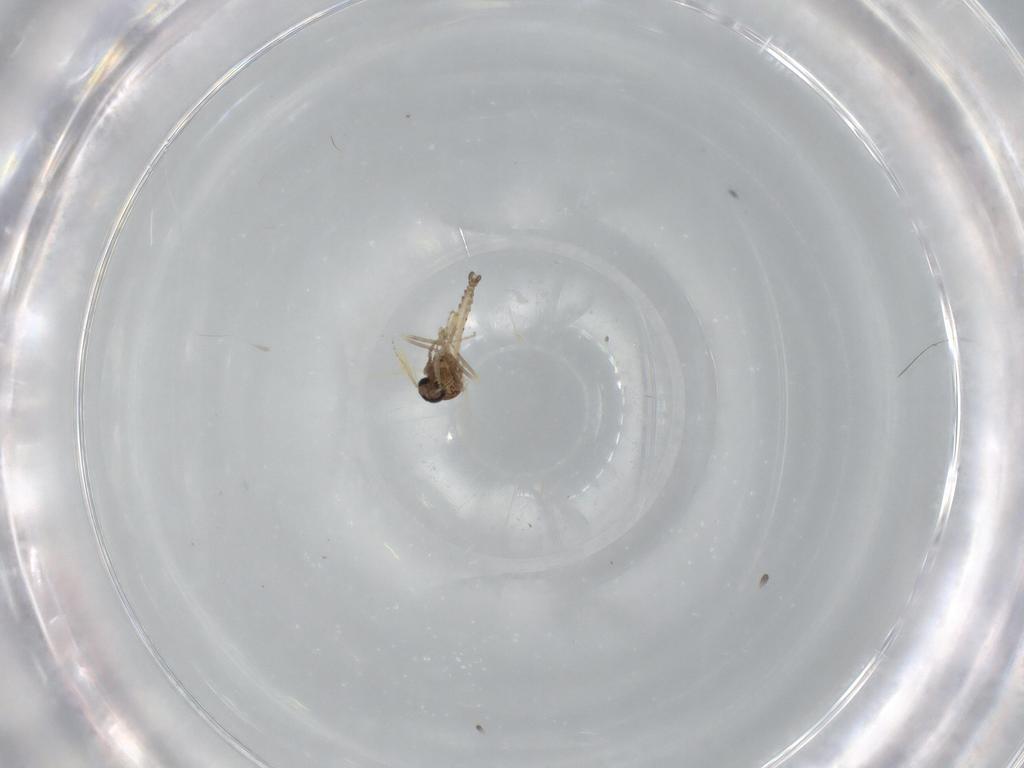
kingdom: Animalia
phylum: Arthropoda
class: Insecta
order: Diptera
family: Ceratopogonidae
